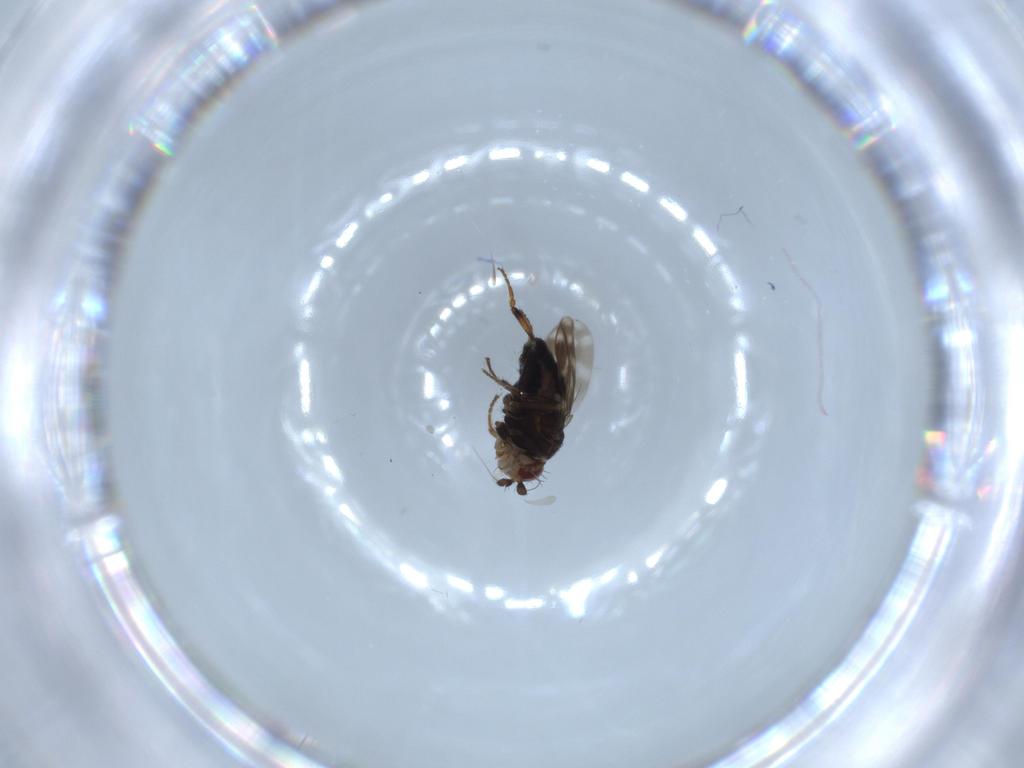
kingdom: Animalia
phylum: Arthropoda
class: Insecta
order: Diptera
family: Sphaeroceridae
